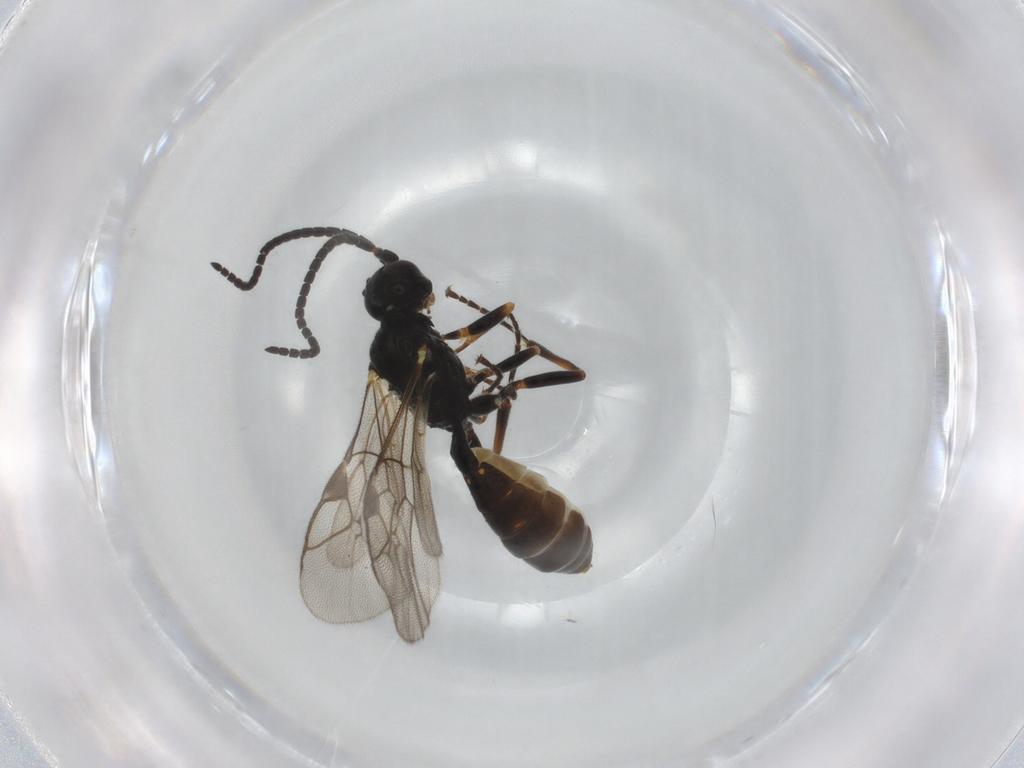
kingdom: Animalia
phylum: Arthropoda
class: Insecta
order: Hymenoptera
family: Ichneumonidae
